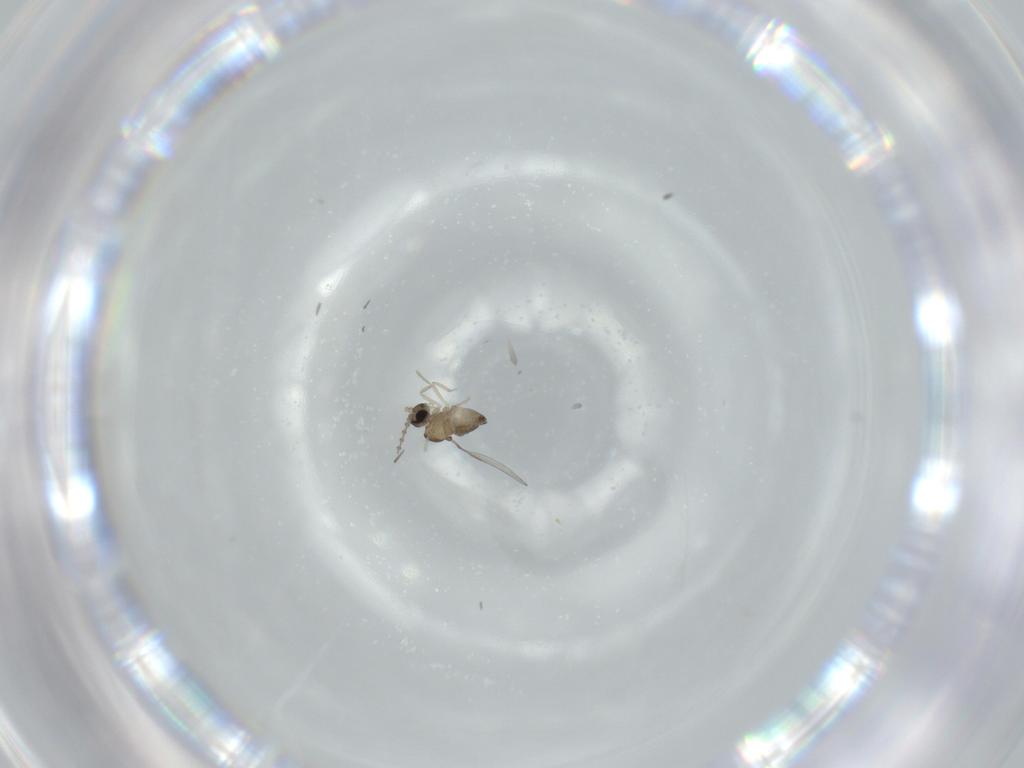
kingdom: Animalia
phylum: Arthropoda
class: Insecta
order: Diptera
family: Cecidomyiidae
